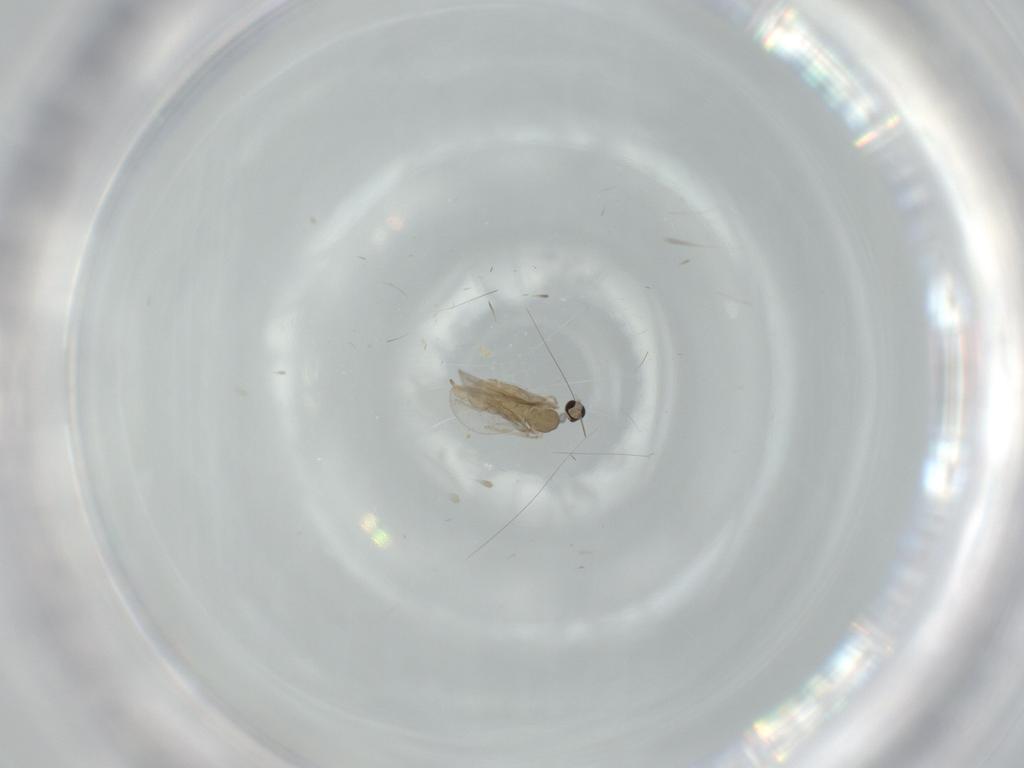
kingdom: Animalia
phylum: Arthropoda
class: Insecta
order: Diptera
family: Cecidomyiidae
